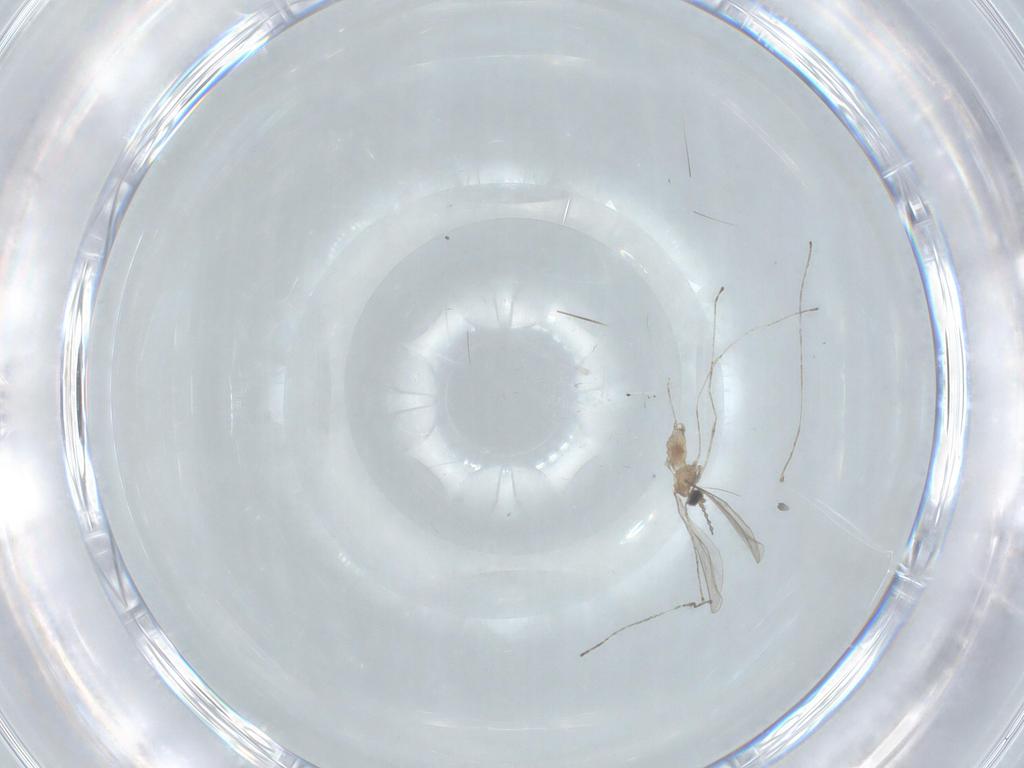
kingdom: Animalia
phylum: Arthropoda
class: Insecta
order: Diptera
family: Cecidomyiidae
